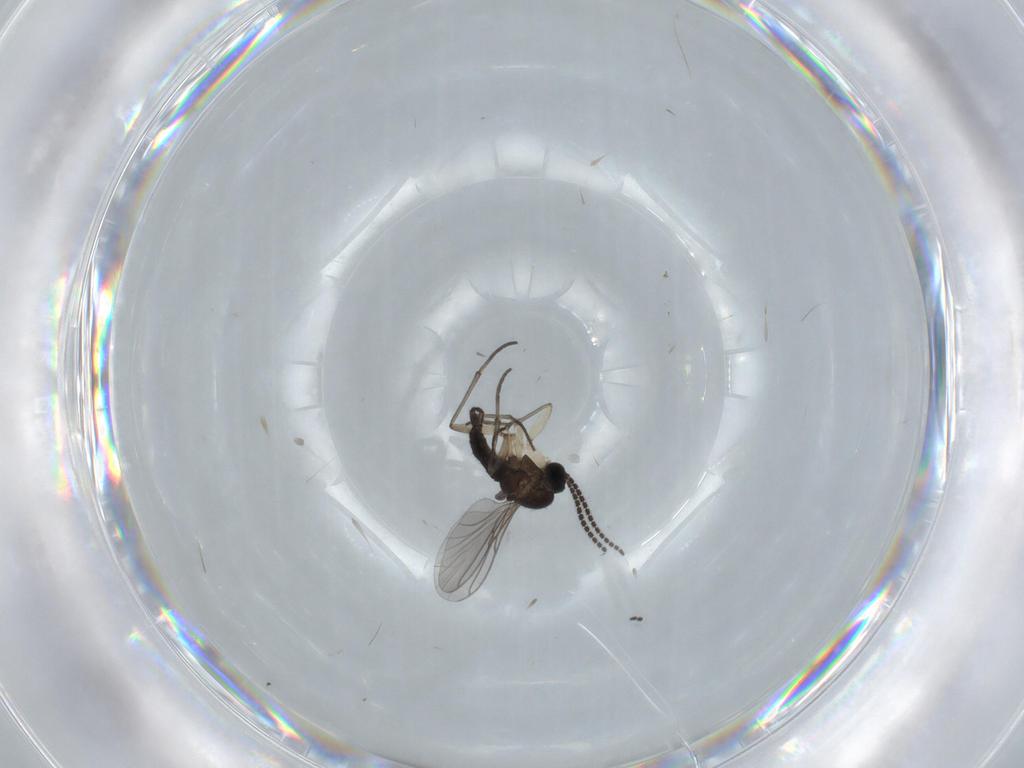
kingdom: Animalia
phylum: Arthropoda
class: Insecta
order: Diptera
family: Sciaridae
